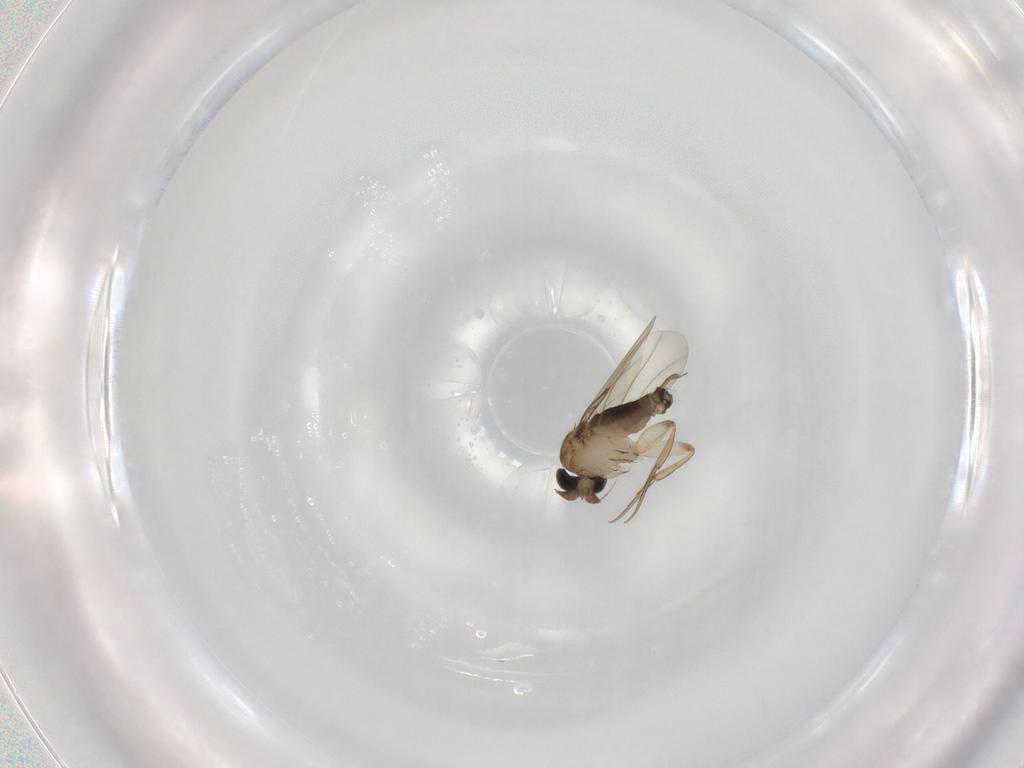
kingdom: Animalia
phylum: Arthropoda
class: Insecta
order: Diptera
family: Phoridae
